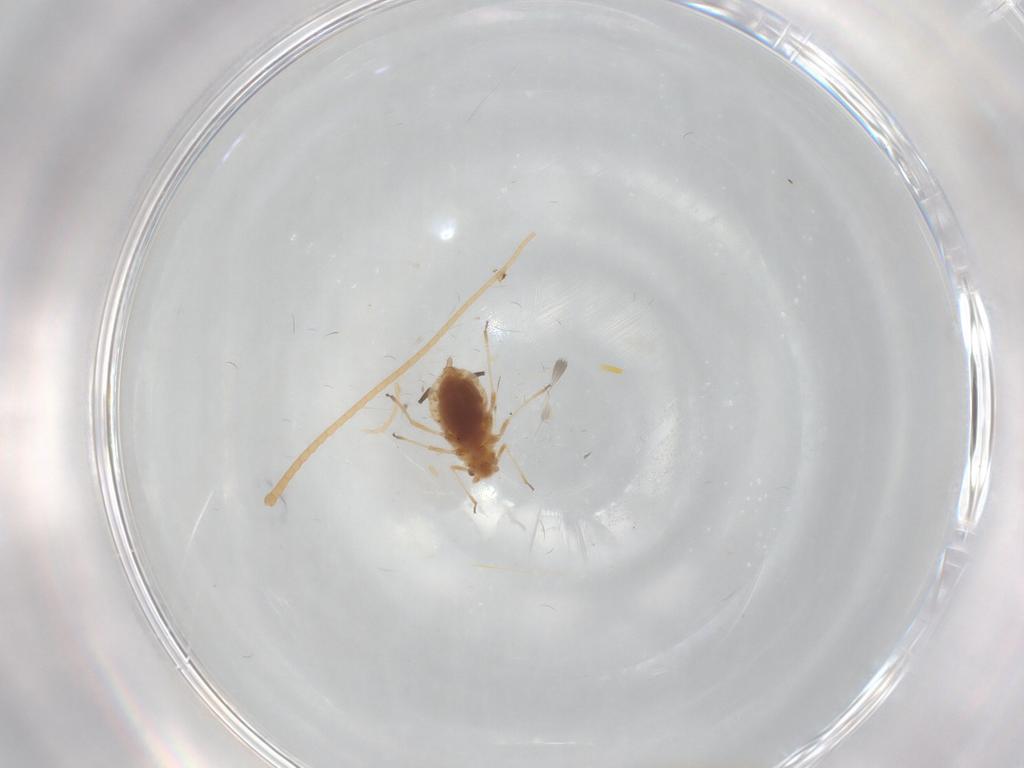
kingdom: Animalia
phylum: Arthropoda
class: Insecta
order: Hemiptera
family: Aphididae
